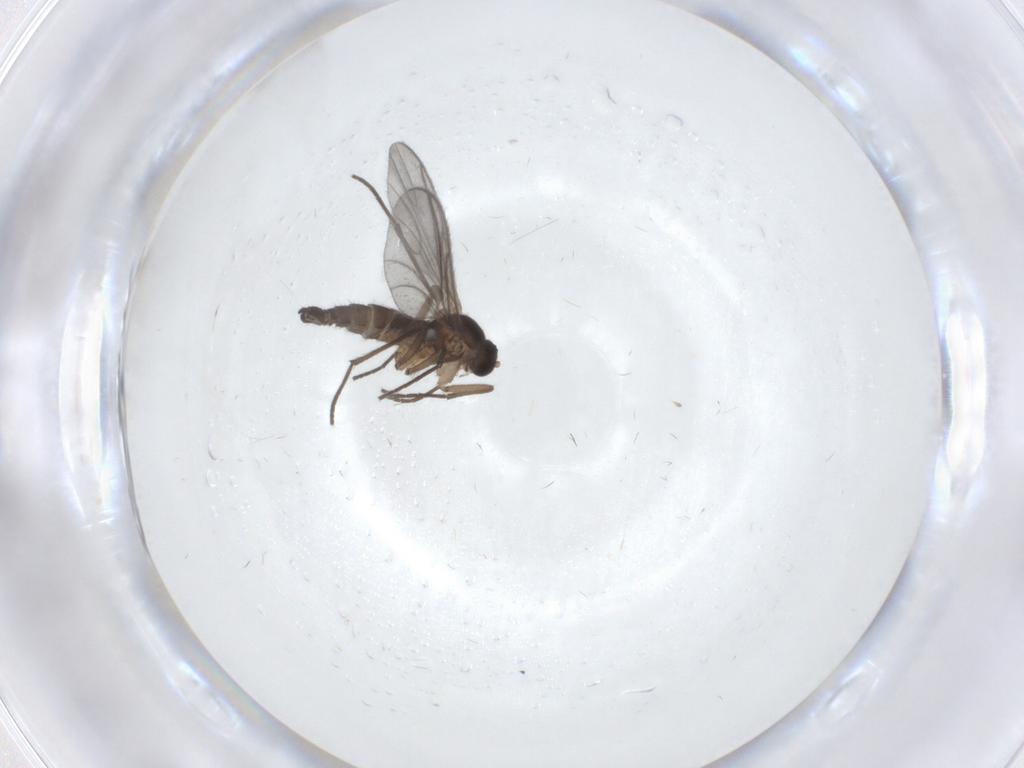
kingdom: Animalia
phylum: Arthropoda
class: Insecta
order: Diptera
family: Sciaridae
